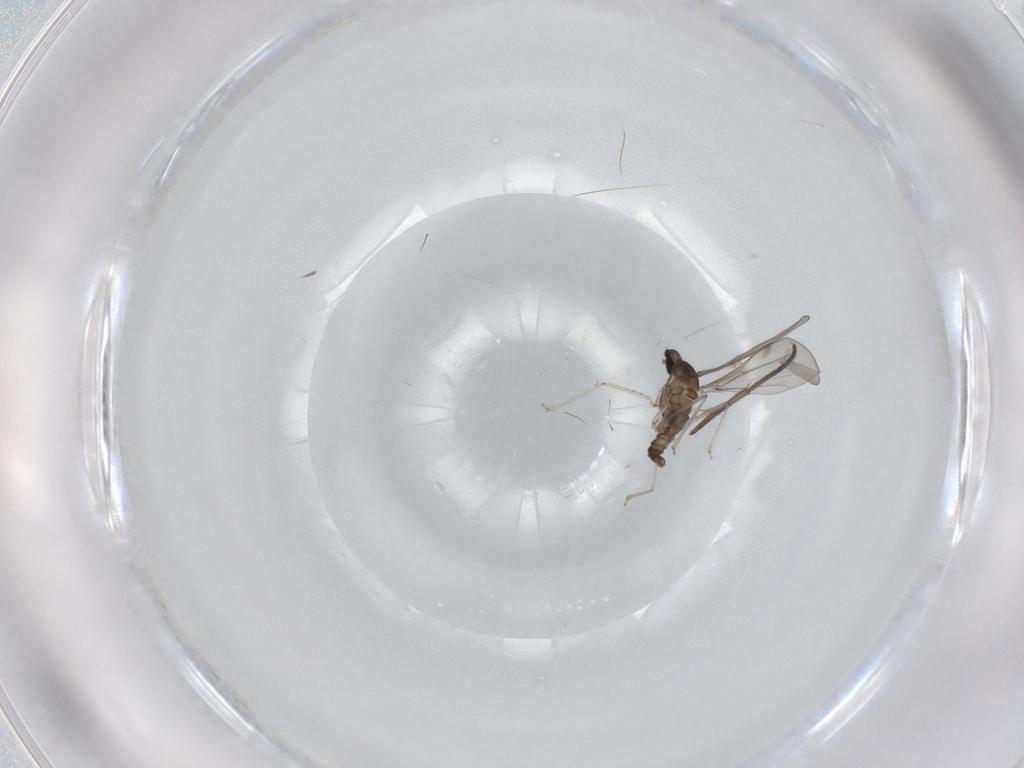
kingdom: Animalia
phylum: Arthropoda
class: Insecta
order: Diptera
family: Cecidomyiidae
